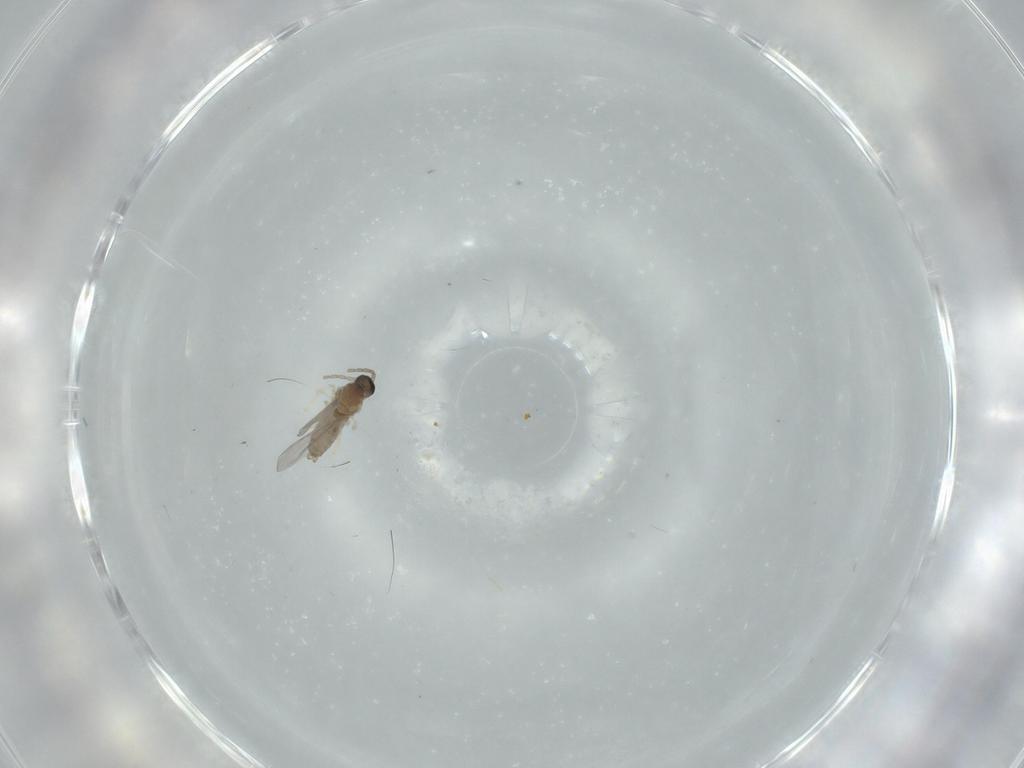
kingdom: Animalia
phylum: Arthropoda
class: Insecta
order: Diptera
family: Cecidomyiidae
